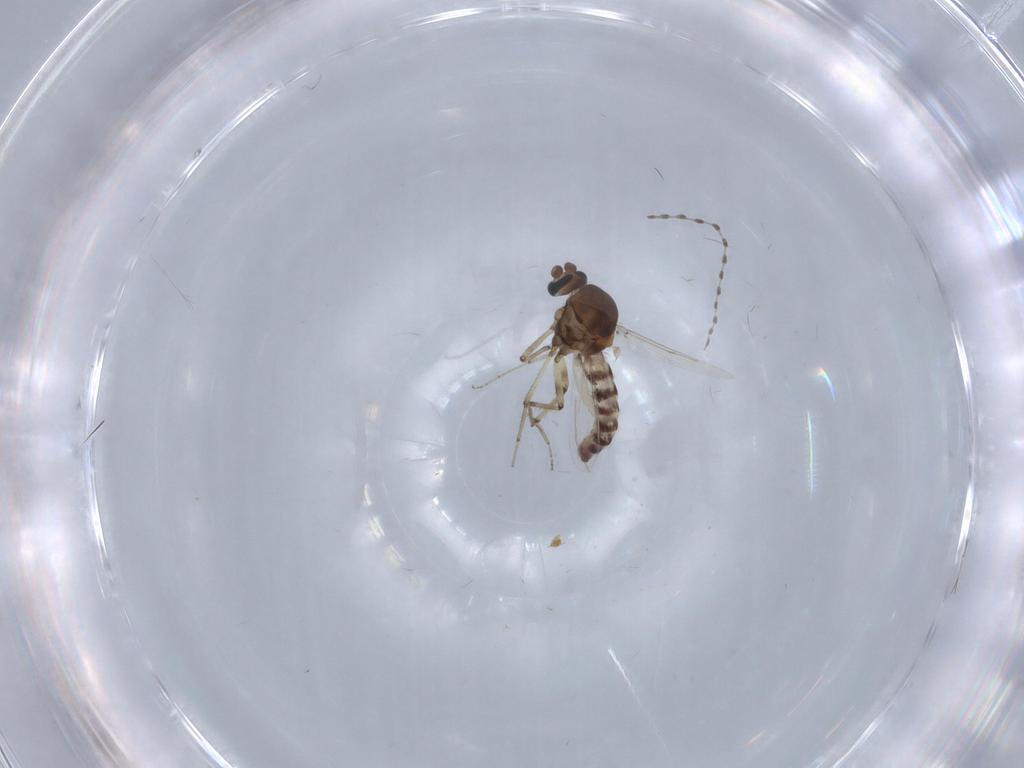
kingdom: Animalia
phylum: Arthropoda
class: Insecta
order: Diptera
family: Cecidomyiidae
